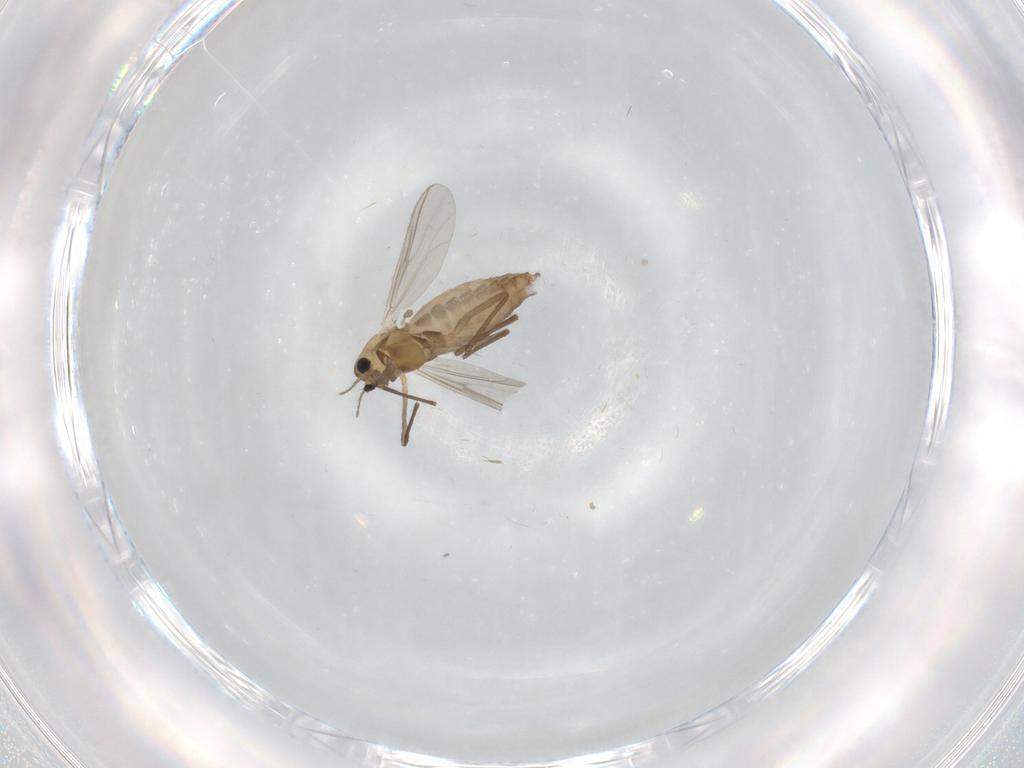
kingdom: Animalia
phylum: Arthropoda
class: Insecta
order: Diptera
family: Chironomidae
